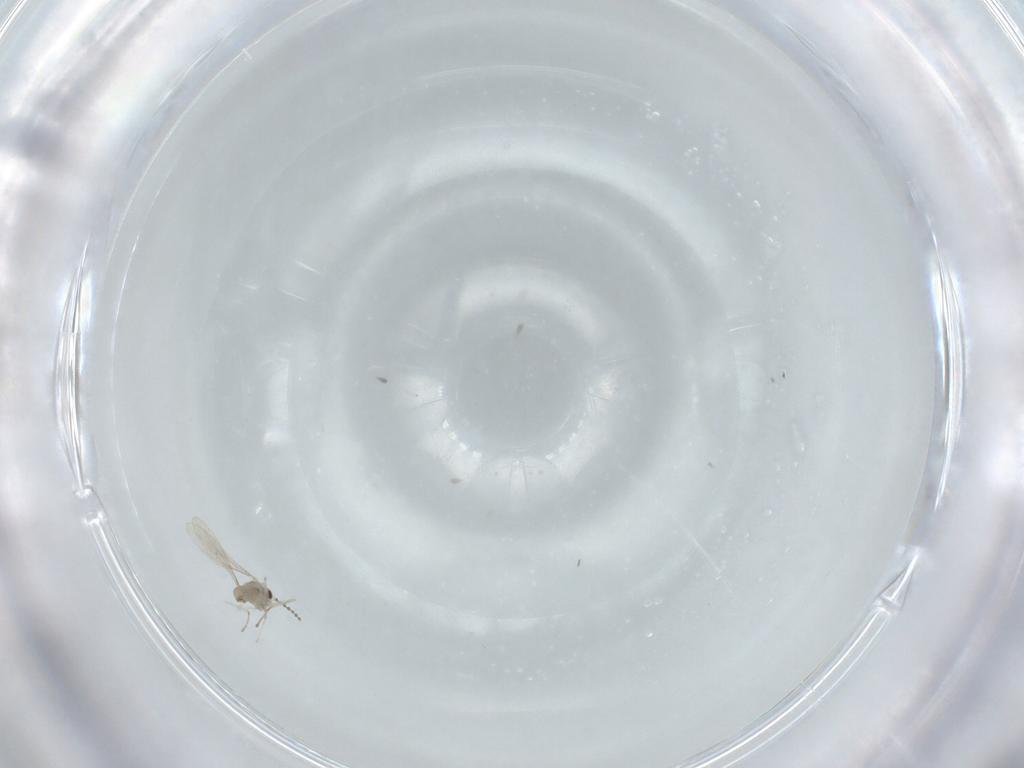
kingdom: Animalia
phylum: Arthropoda
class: Insecta
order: Diptera
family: Cecidomyiidae
